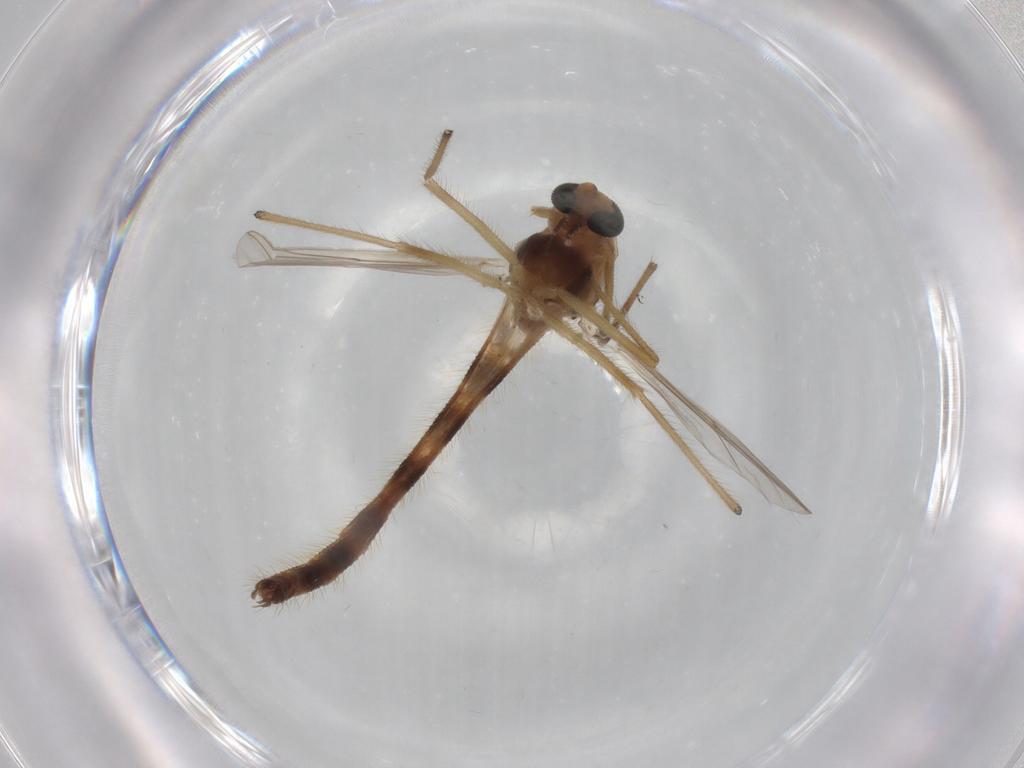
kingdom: Animalia
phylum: Arthropoda
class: Insecta
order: Diptera
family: Chironomidae
